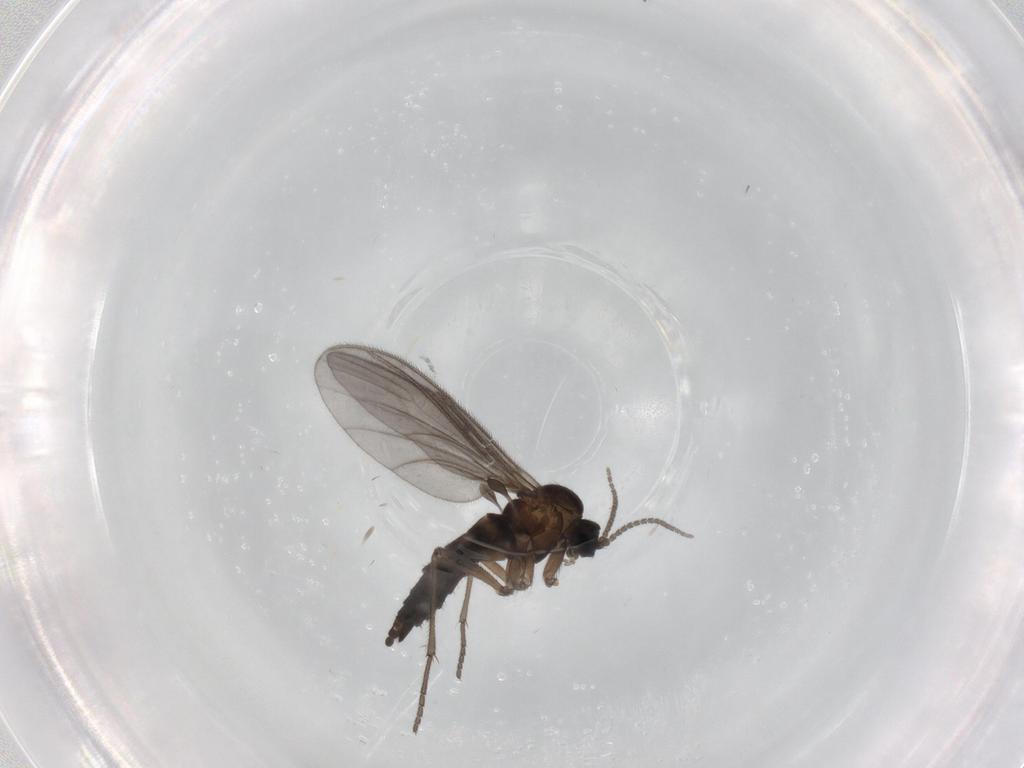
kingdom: Animalia
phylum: Arthropoda
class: Insecta
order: Diptera
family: Sciaridae
